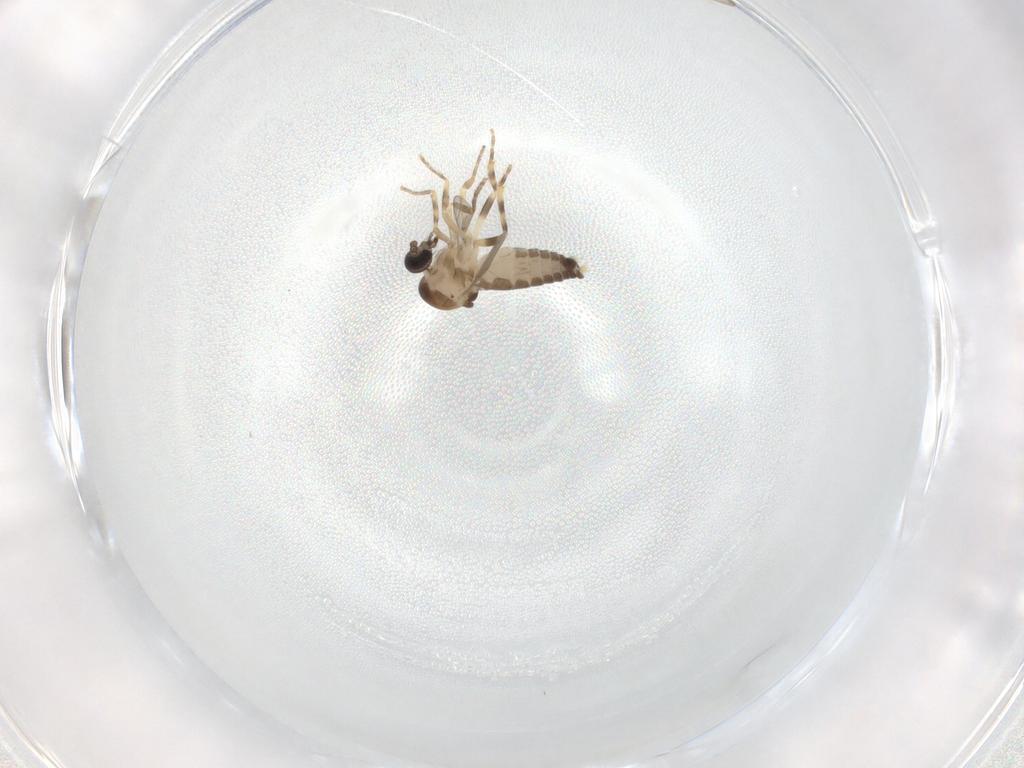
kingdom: Animalia
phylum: Arthropoda
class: Insecta
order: Diptera
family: Ceratopogonidae
